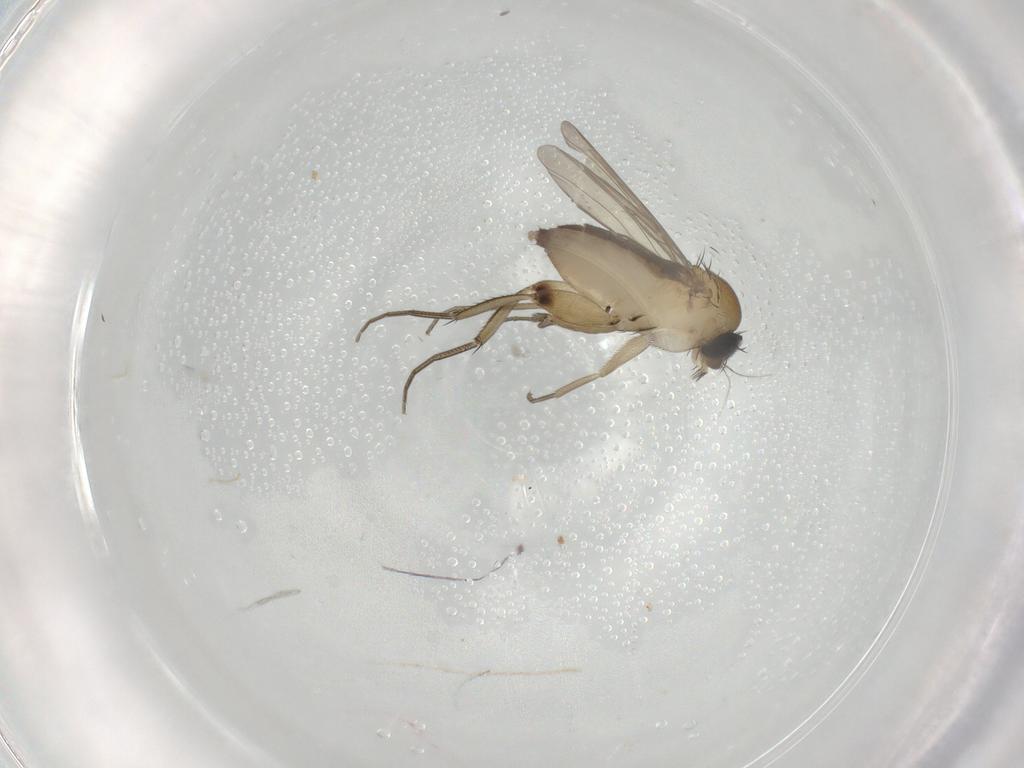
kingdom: Animalia
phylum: Arthropoda
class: Insecta
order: Diptera
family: Phoridae
